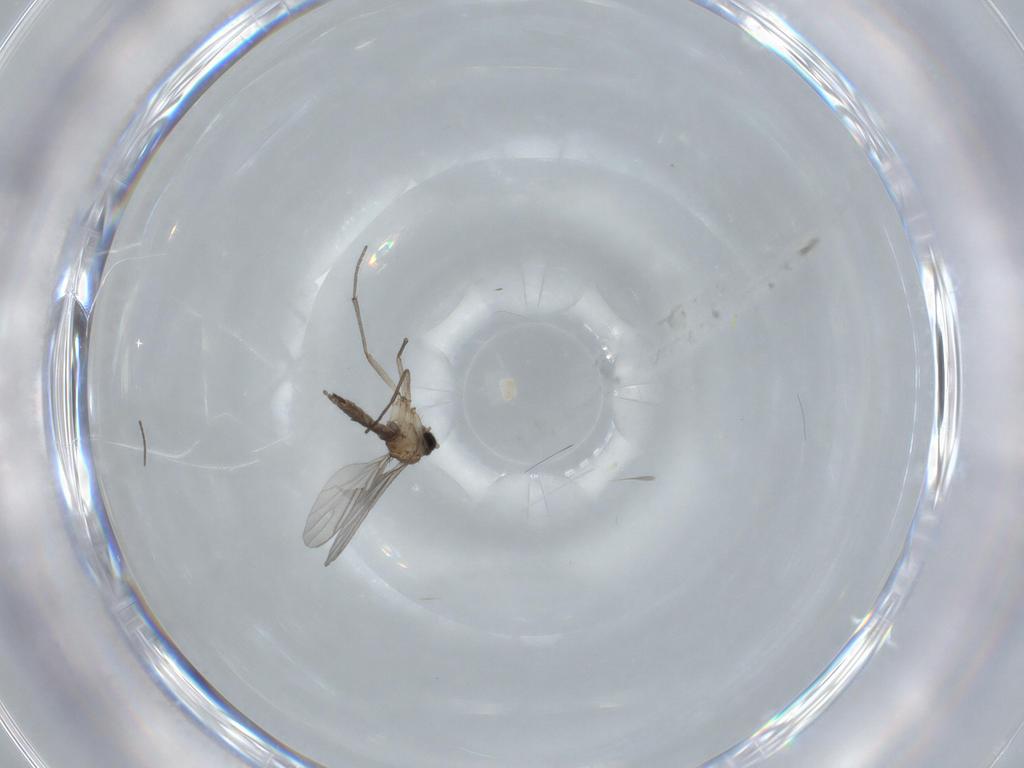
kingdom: Animalia
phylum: Arthropoda
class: Insecta
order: Diptera
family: Sciaridae
